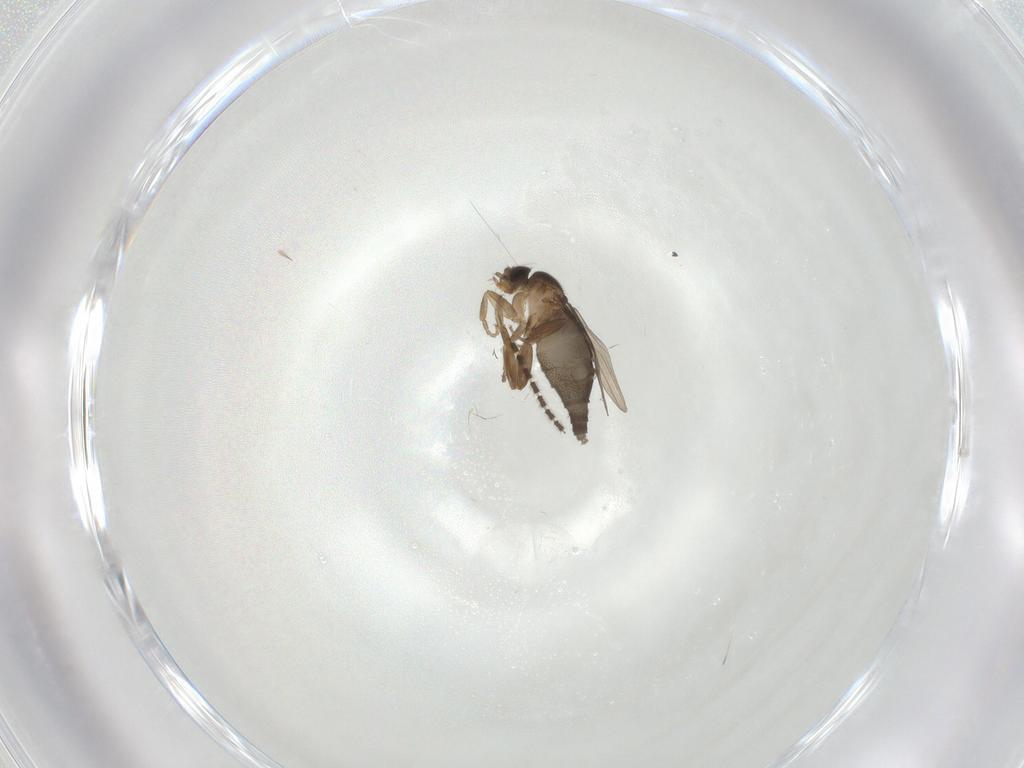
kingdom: Animalia
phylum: Arthropoda
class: Insecta
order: Diptera
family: Sciaridae
